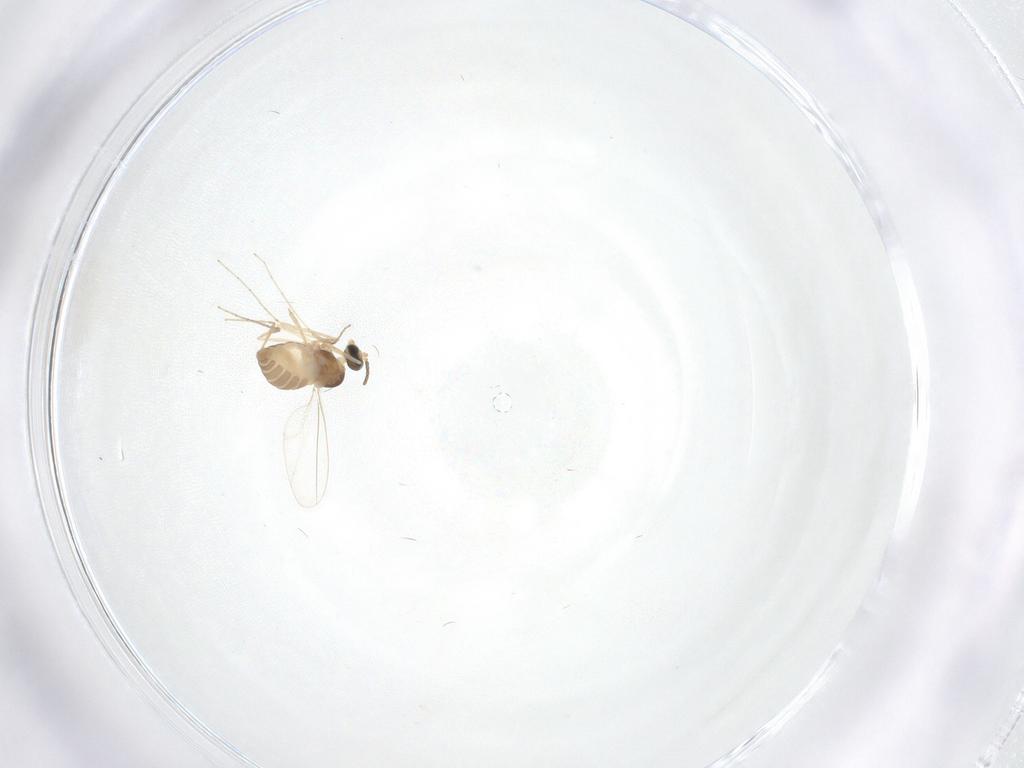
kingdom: Animalia
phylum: Arthropoda
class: Insecta
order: Diptera
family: Cecidomyiidae
